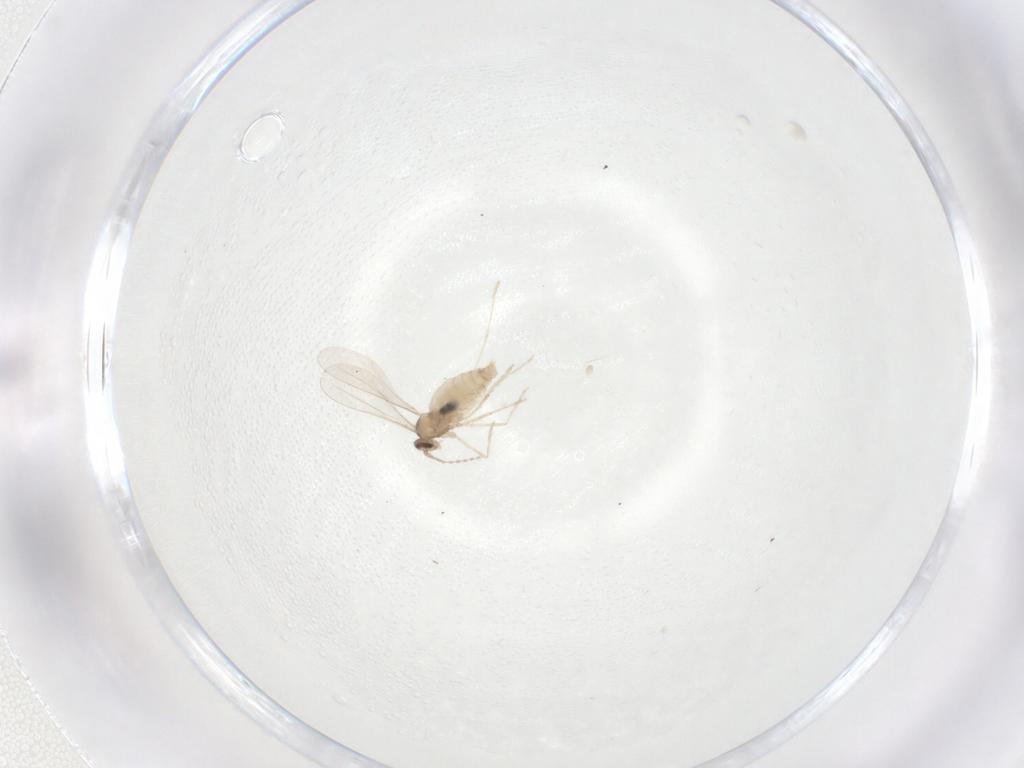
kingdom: Animalia
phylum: Arthropoda
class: Insecta
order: Diptera
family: Cecidomyiidae
